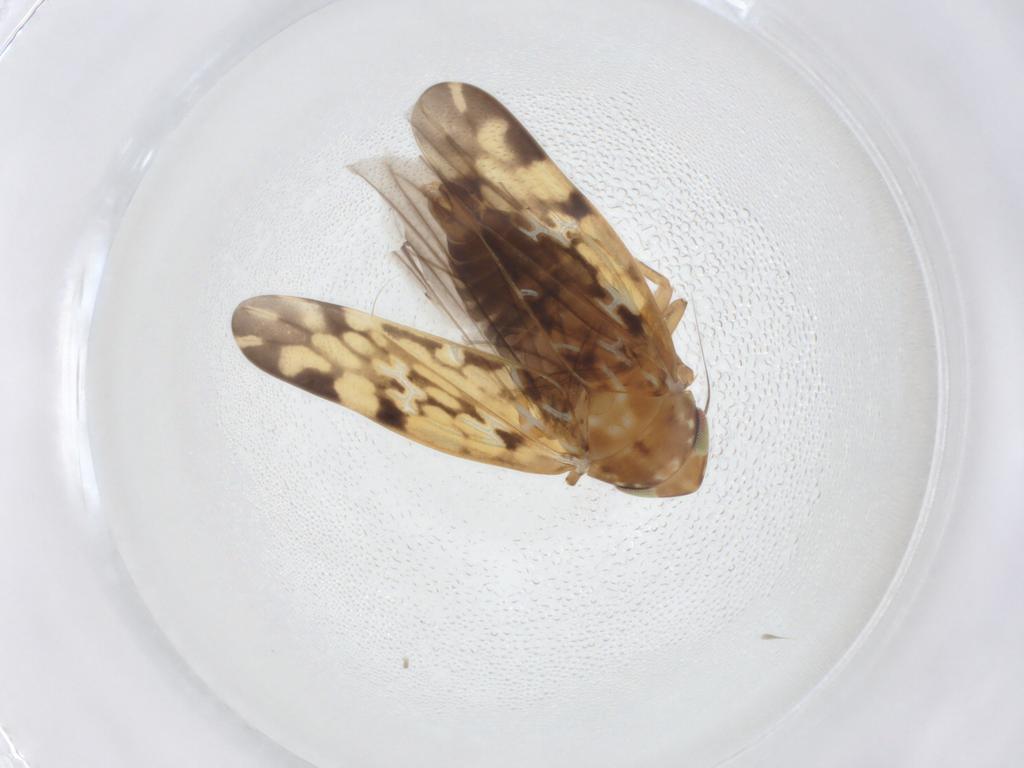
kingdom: Animalia
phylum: Arthropoda
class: Insecta
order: Hemiptera
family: Cicadellidae
